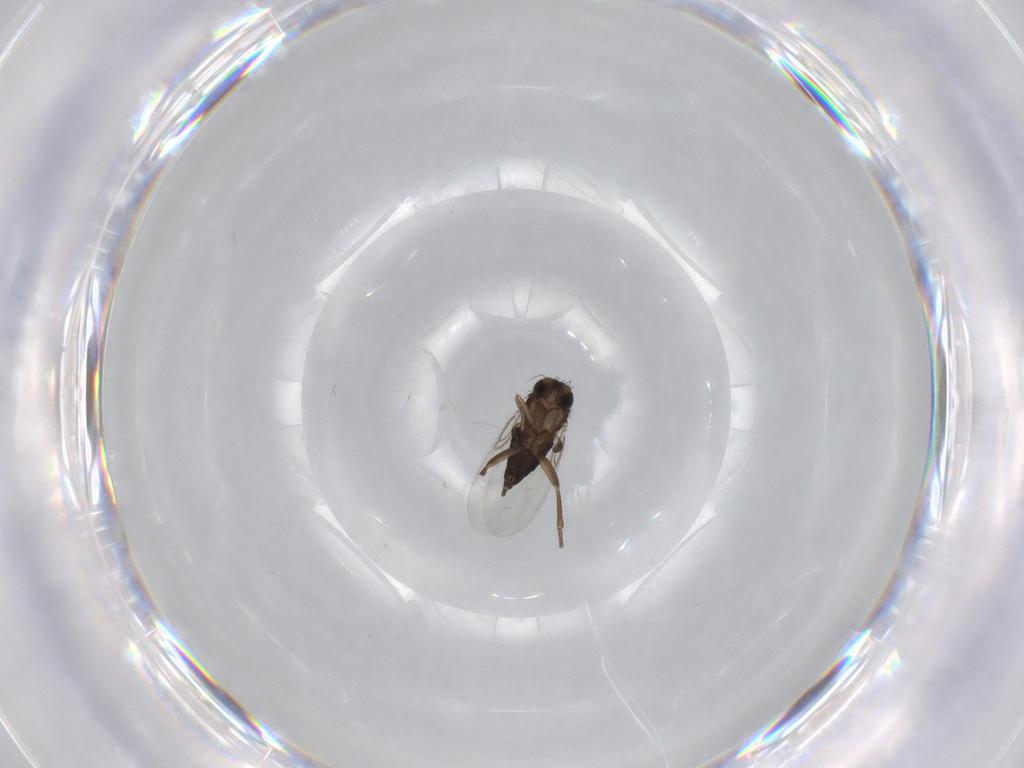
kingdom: Animalia
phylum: Arthropoda
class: Insecta
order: Diptera
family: Phoridae
